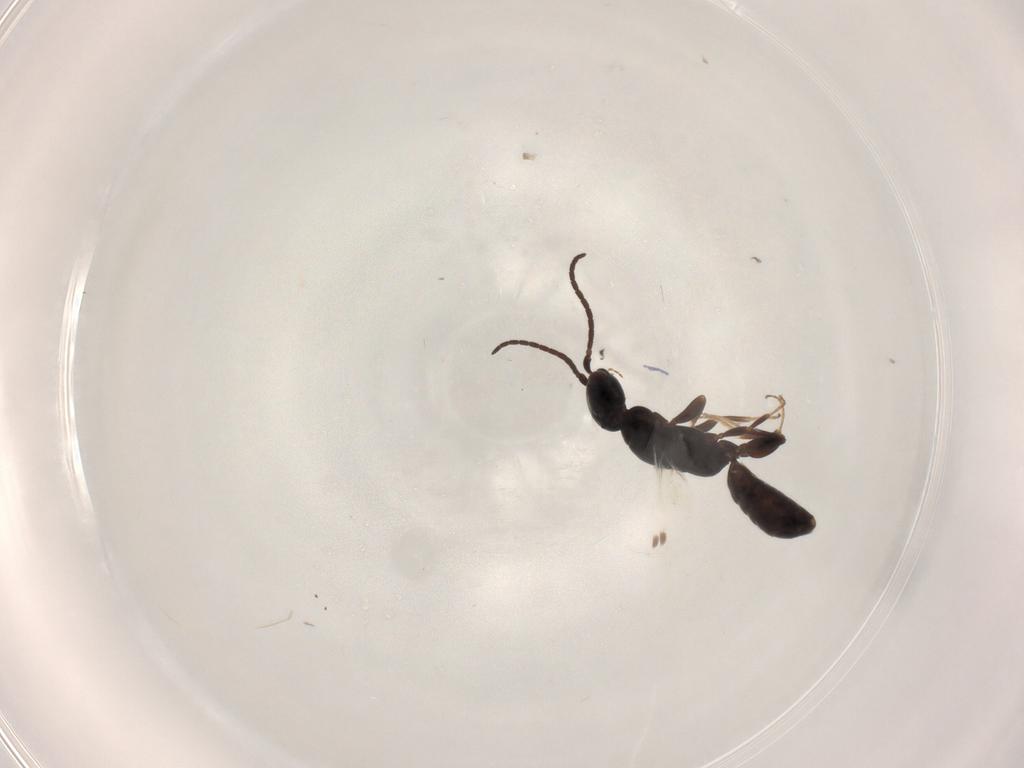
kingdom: Animalia
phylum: Arthropoda
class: Insecta
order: Hymenoptera
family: Bethylidae
